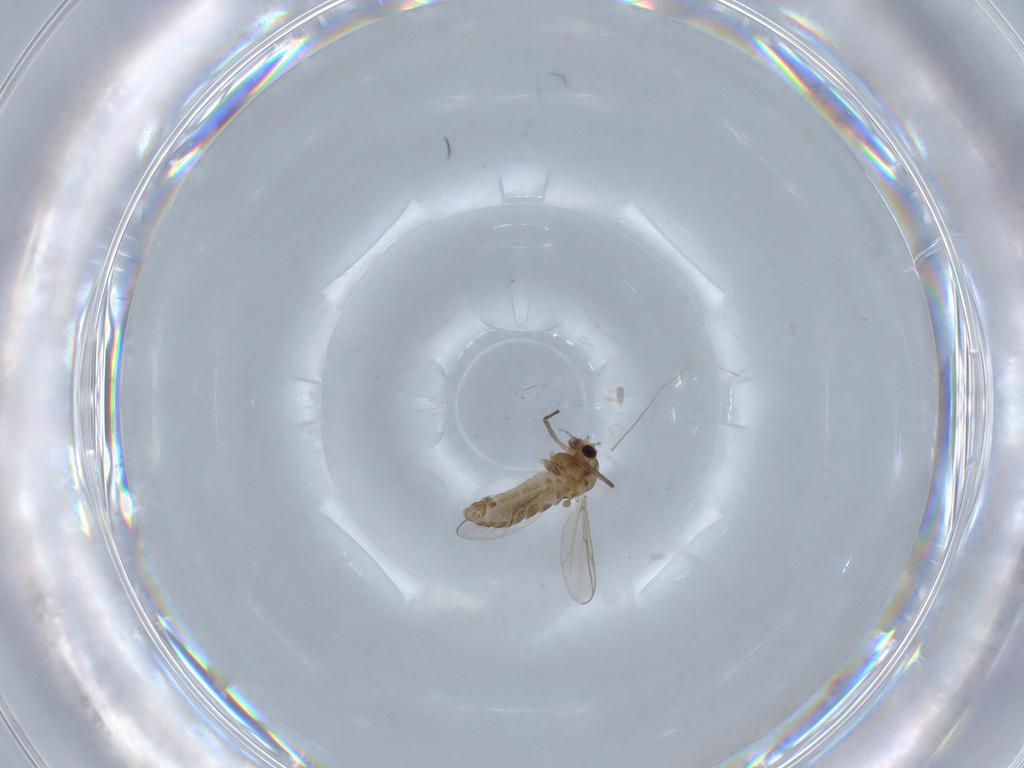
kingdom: Animalia
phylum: Arthropoda
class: Insecta
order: Diptera
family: Chironomidae
